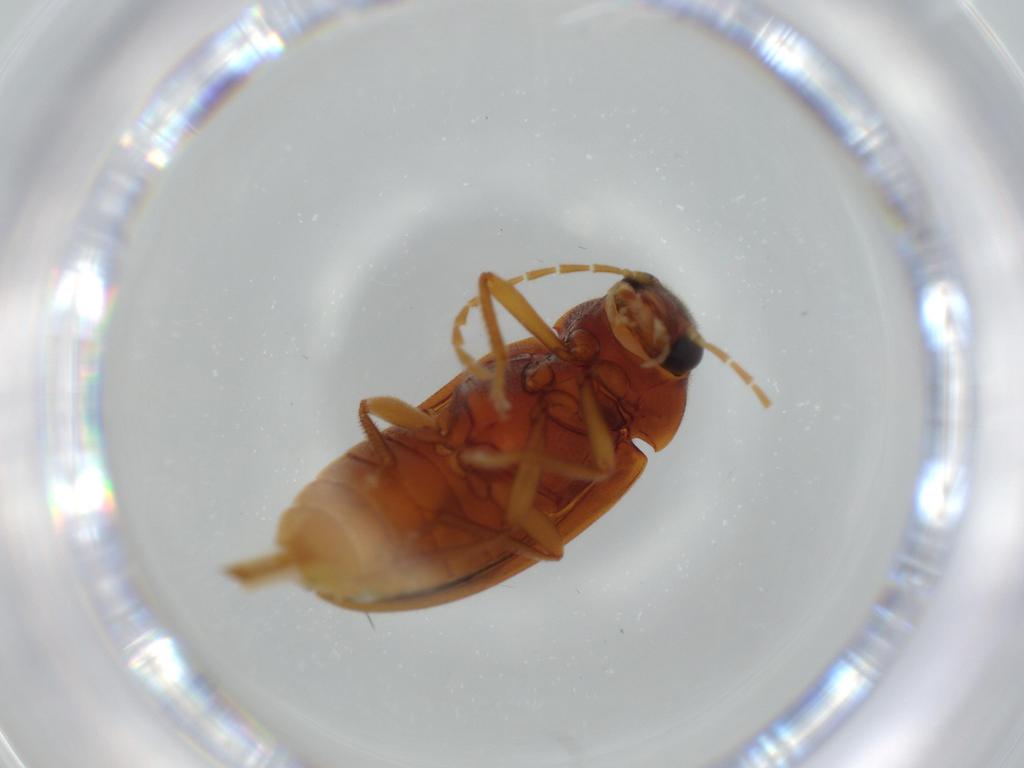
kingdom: Animalia
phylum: Arthropoda
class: Insecta
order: Coleoptera
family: Ptilodactylidae
